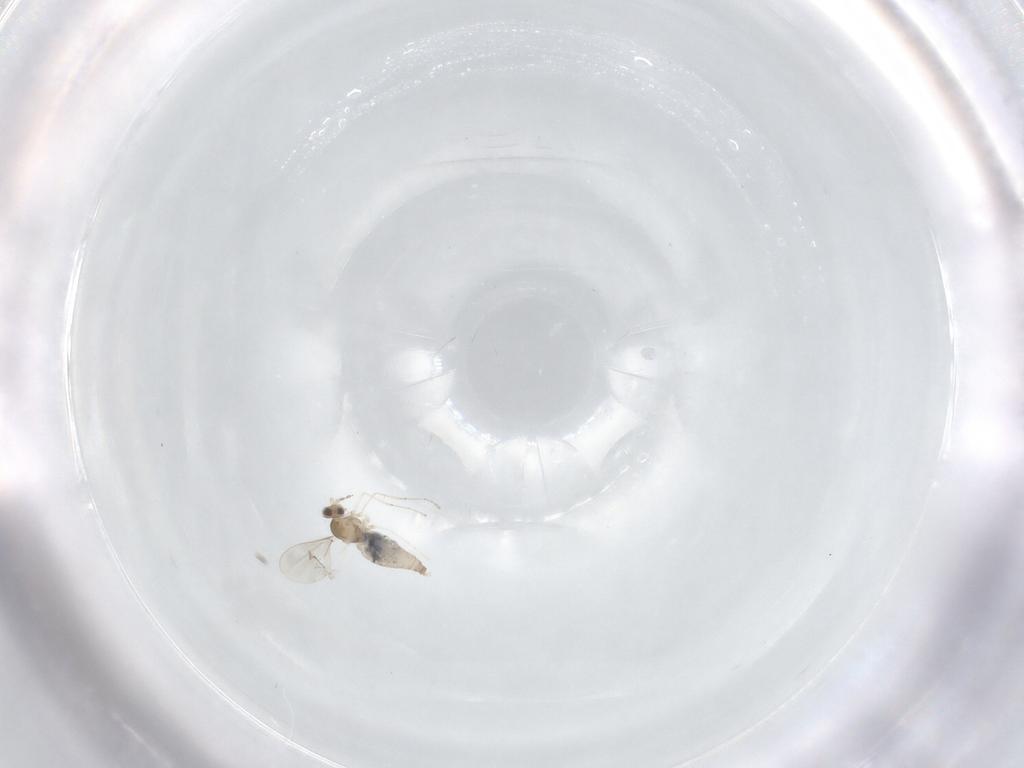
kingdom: Animalia
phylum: Arthropoda
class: Insecta
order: Diptera
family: Cecidomyiidae
